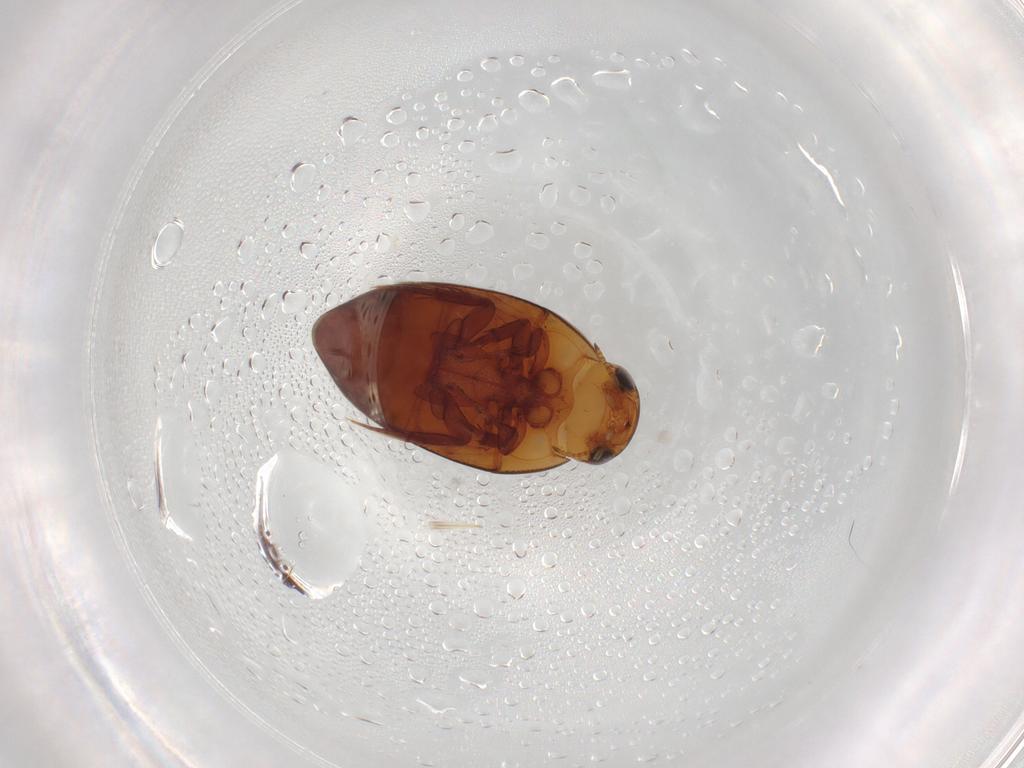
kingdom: Animalia
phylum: Arthropoda
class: Insecta
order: Coleoptera
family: Noteridae
